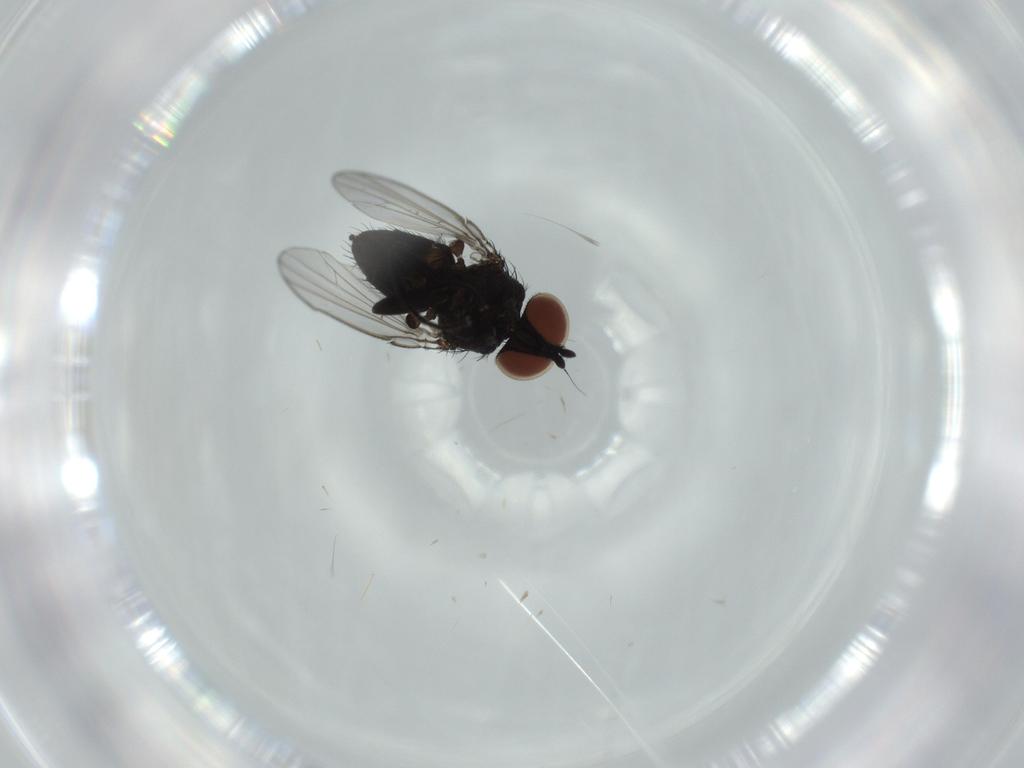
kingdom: Animalia
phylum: Arthropoda
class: Insecta
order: Diptera
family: Milichiidae
